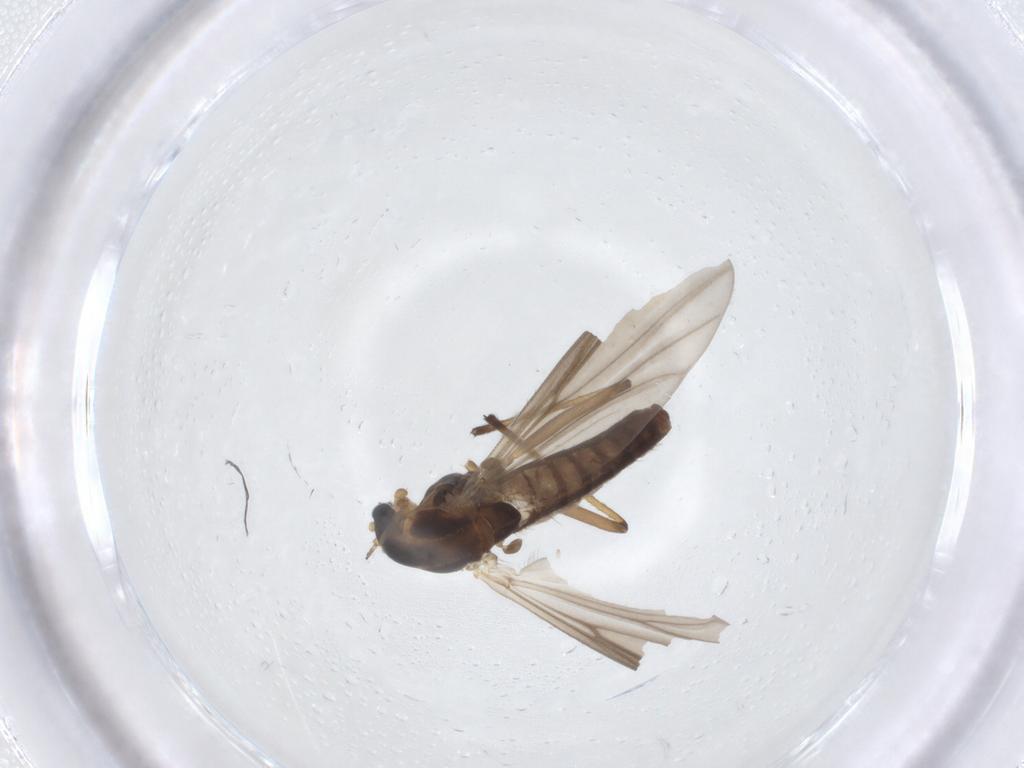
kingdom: Animalia
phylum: Arthropoda
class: Insecta
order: Diptera
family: Chironomidae
